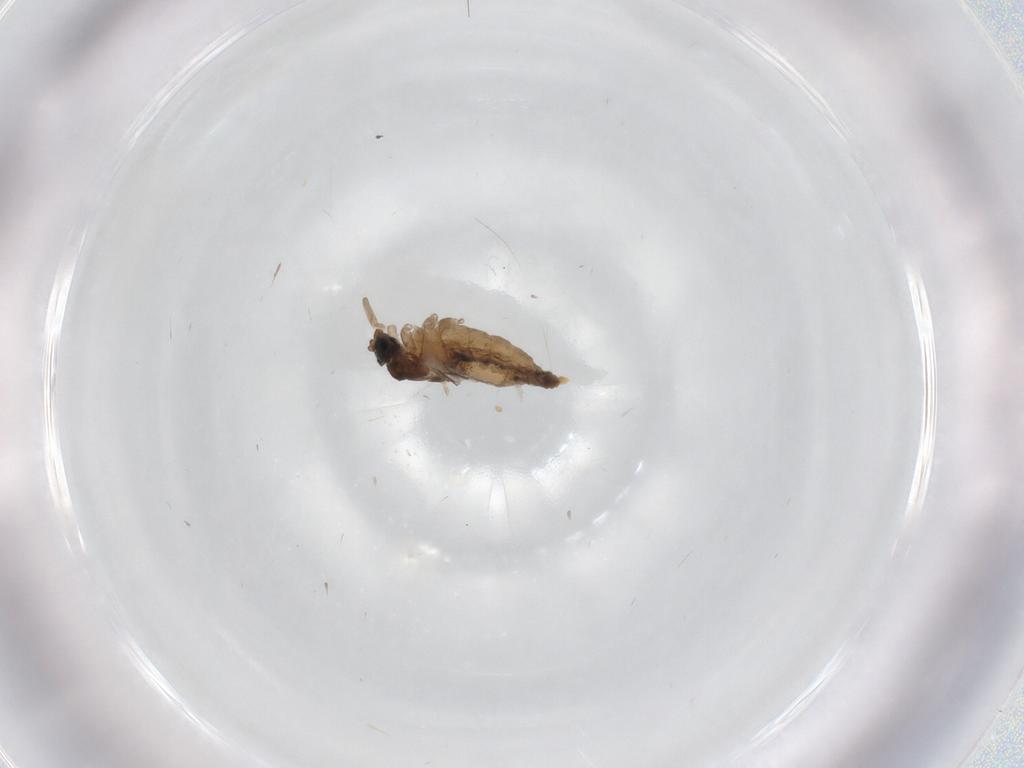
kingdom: Animalia
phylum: Arthropoda
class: Insecta
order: Diptera
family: Cecidomyiidae
